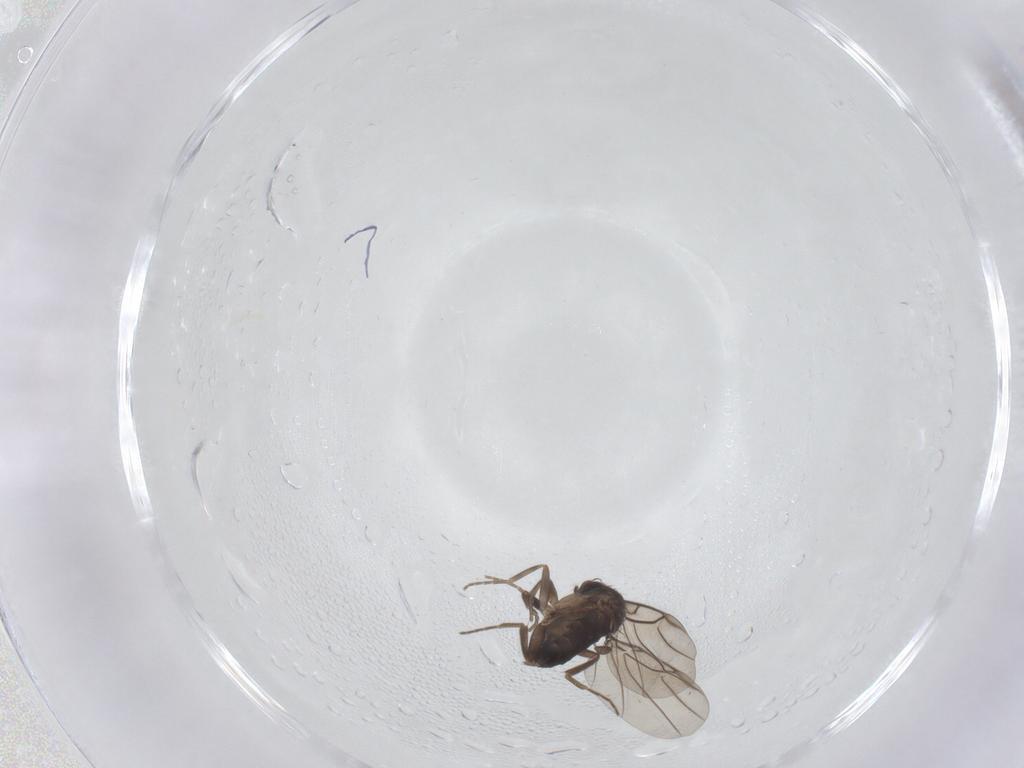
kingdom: Animalia
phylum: Arthropoda
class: Insecta
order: Diptera
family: Phoridae
